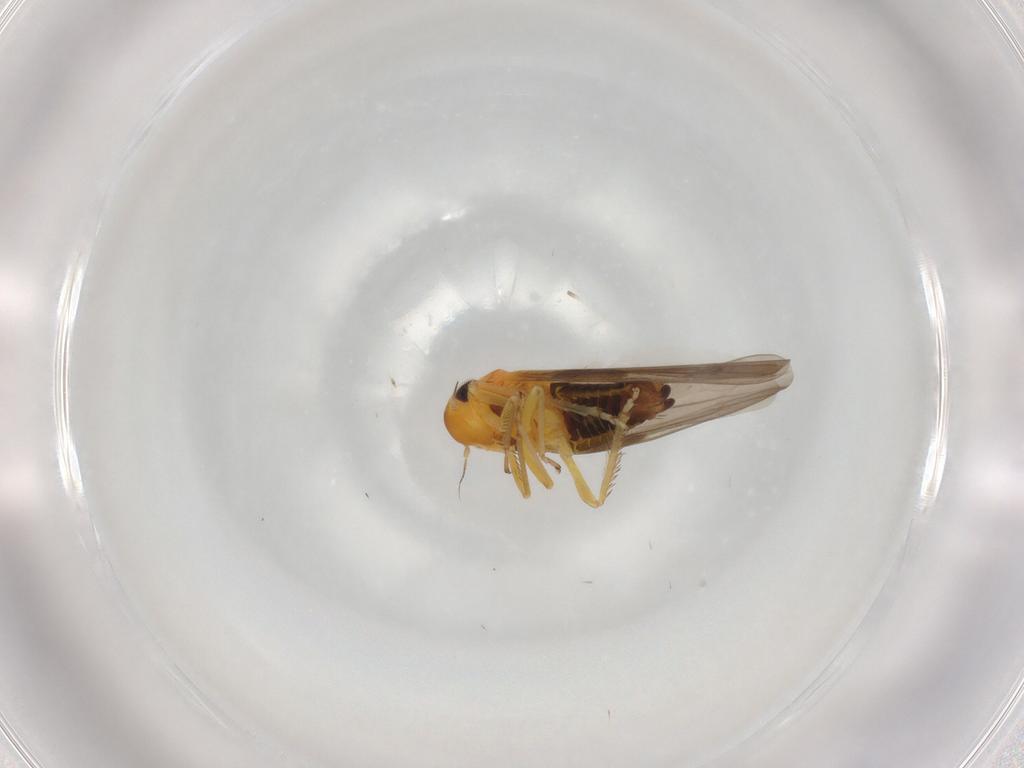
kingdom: Animalia
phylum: Arthropoda
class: Insecta
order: Hemiptera
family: Cicadellidae
